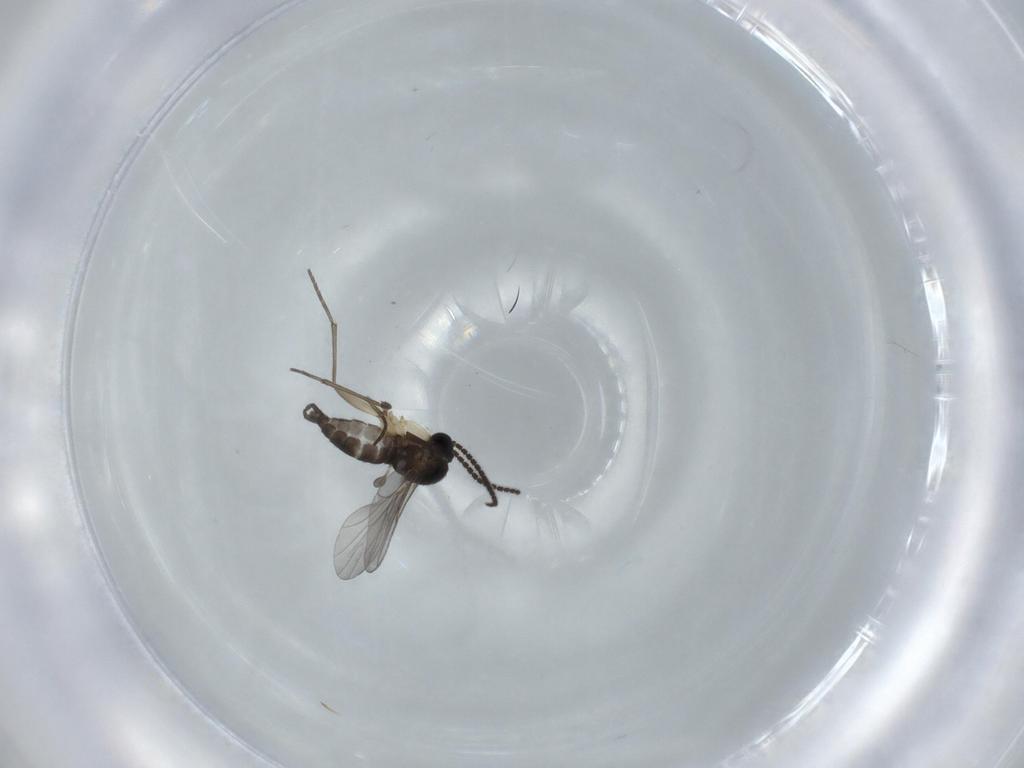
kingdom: Animalia
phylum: Arthropoda
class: Insecta
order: Diptera
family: Sciaridae
